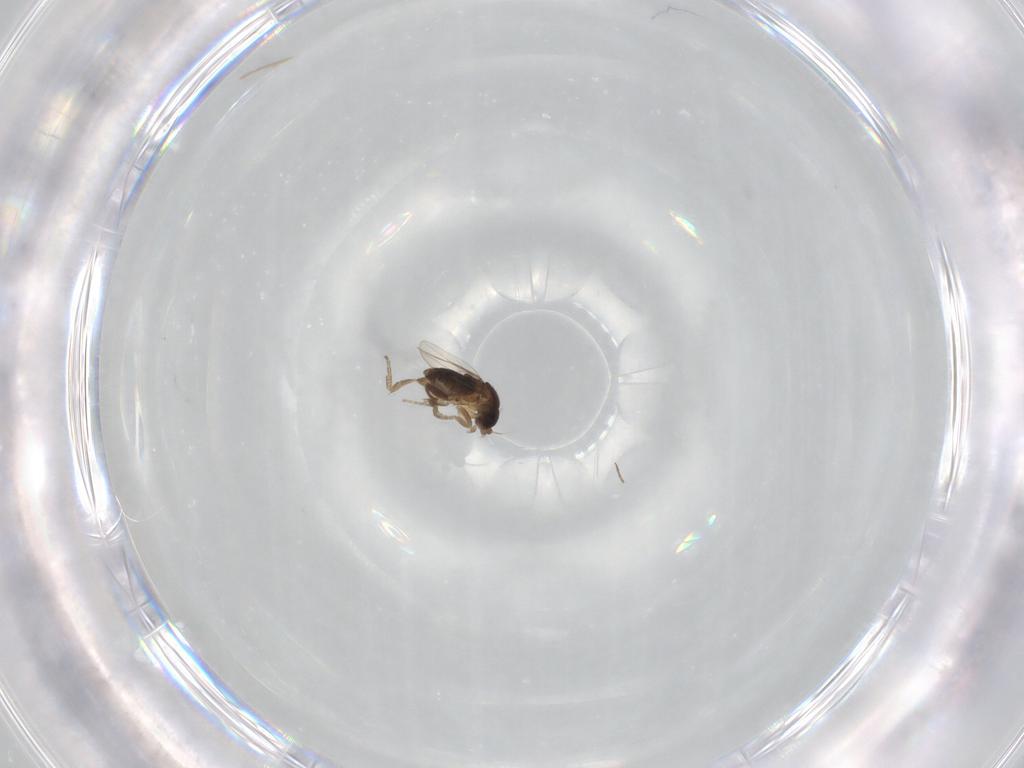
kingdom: Animalia
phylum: Arthropoda
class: Insecta
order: Diptera
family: Phoridae
